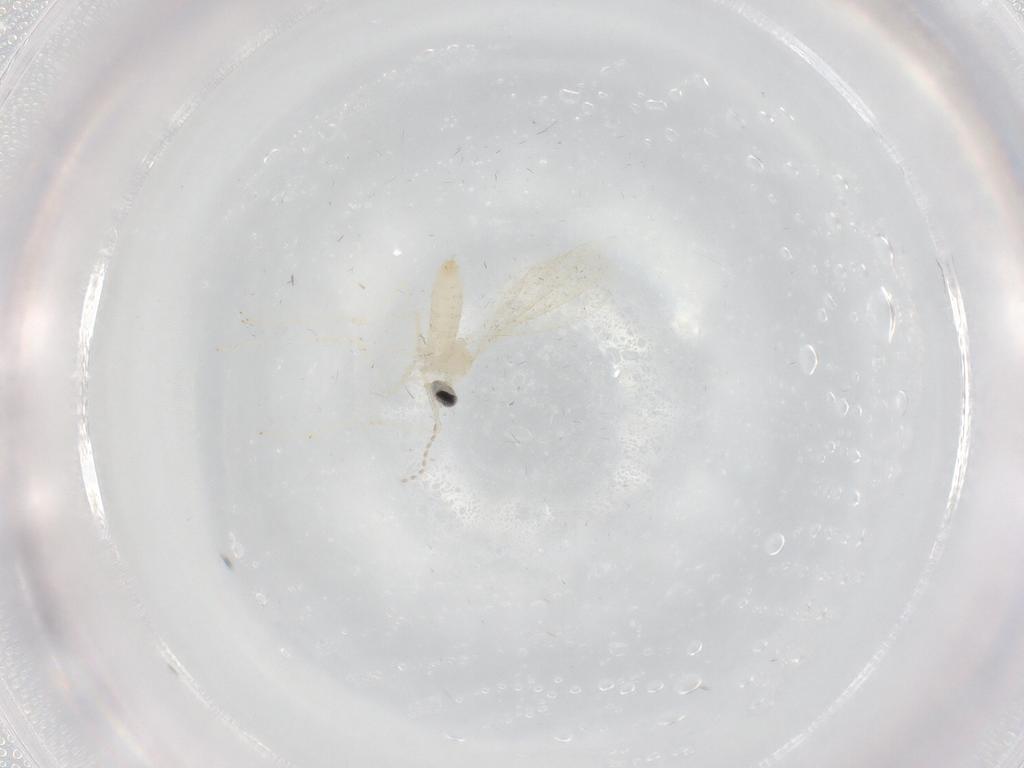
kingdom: Animalia
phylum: Arthropoda
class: Insecta
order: Diptera
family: Cecidomyiidae
